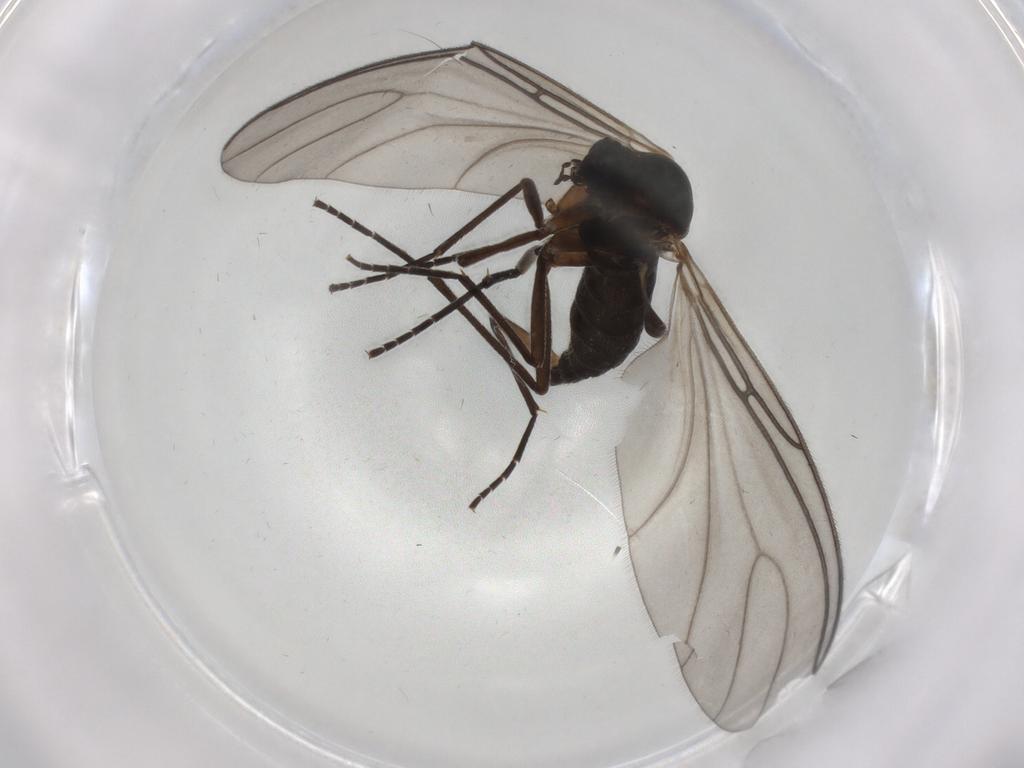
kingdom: Animalia
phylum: Arthropoda
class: Insecta
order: Diptera
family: Sciaridae
